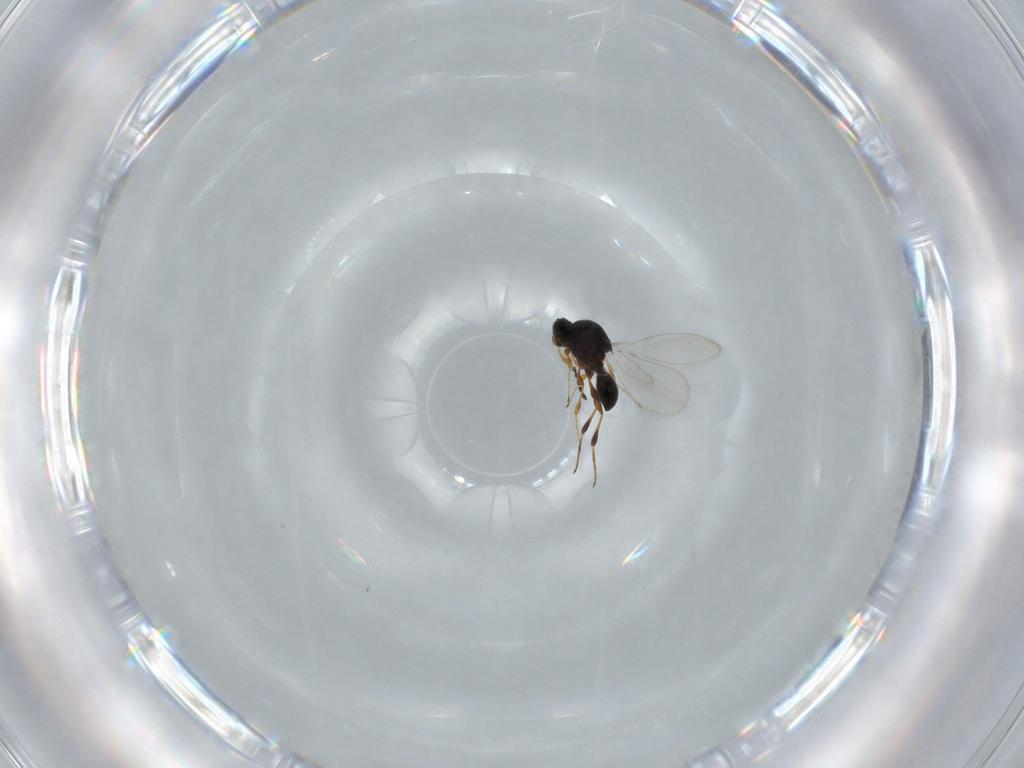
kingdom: Animalia
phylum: Arthropoda
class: Insecta
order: Hymenoptera
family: Platygastridae
